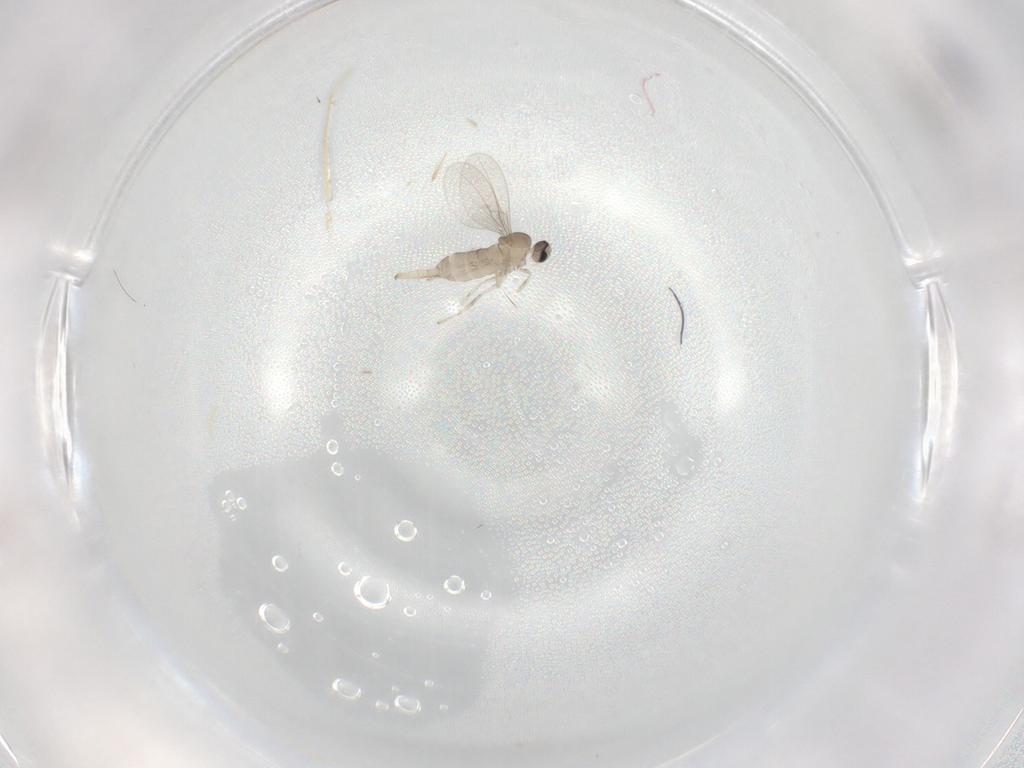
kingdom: Animalia
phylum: Arthropoda
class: Insecta
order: Diptera
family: Cecidomyiidae
